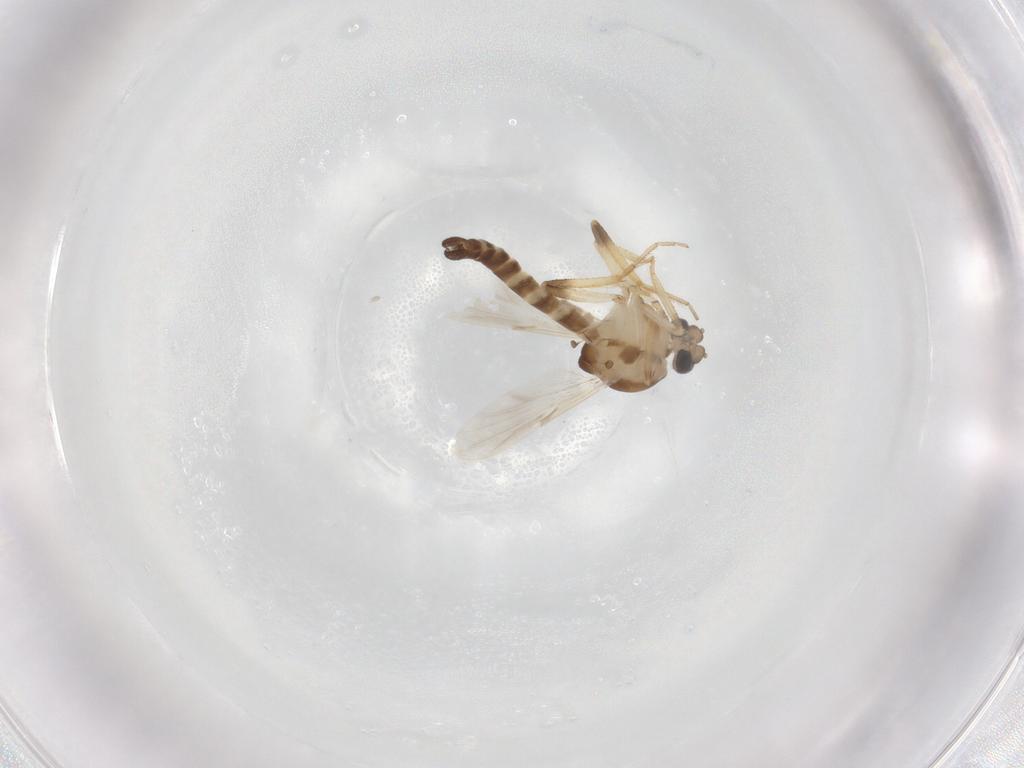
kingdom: Animalia
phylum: Arthropoda
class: Insecta
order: Diptera
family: Ceratopogonidae
